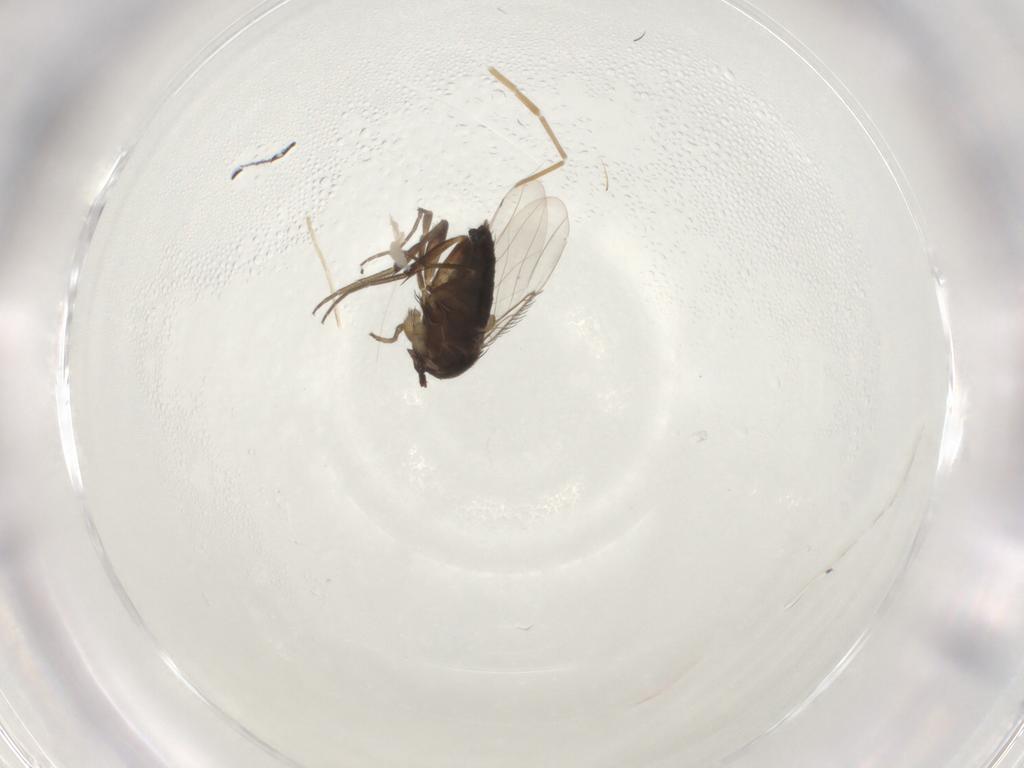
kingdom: Animalia
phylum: Arthropoda
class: Insecta
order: Diptera
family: Phoridae
